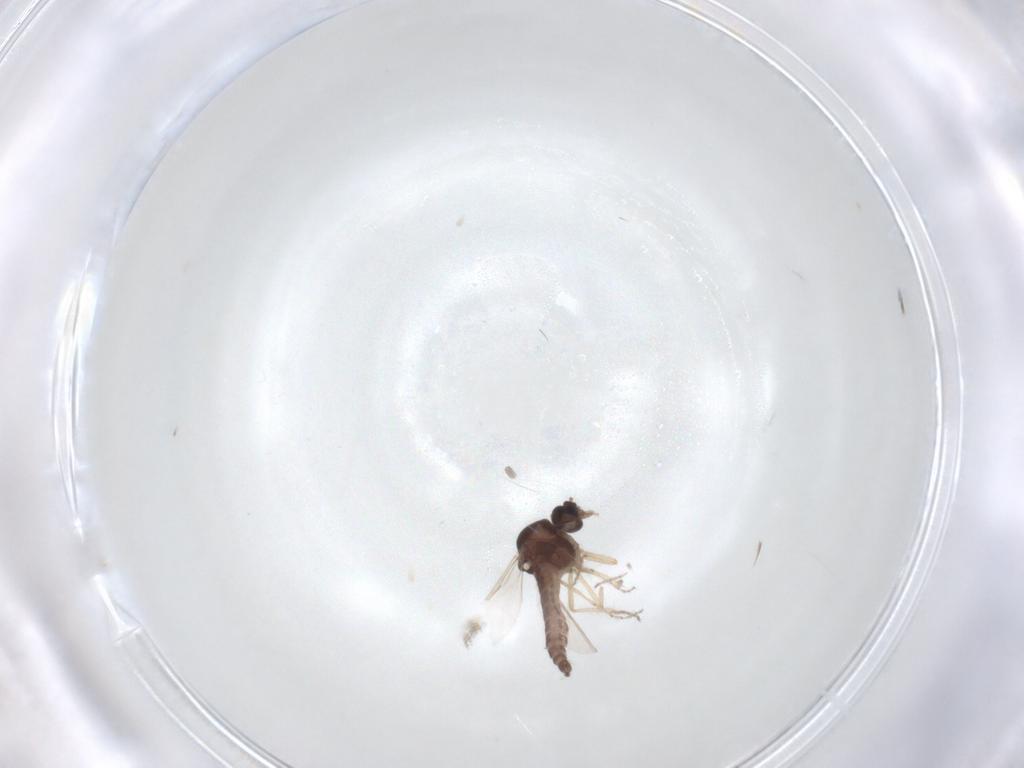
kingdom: Animalia
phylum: Arthropoda
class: Insecta
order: Diptera
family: Ceratopogonidae
